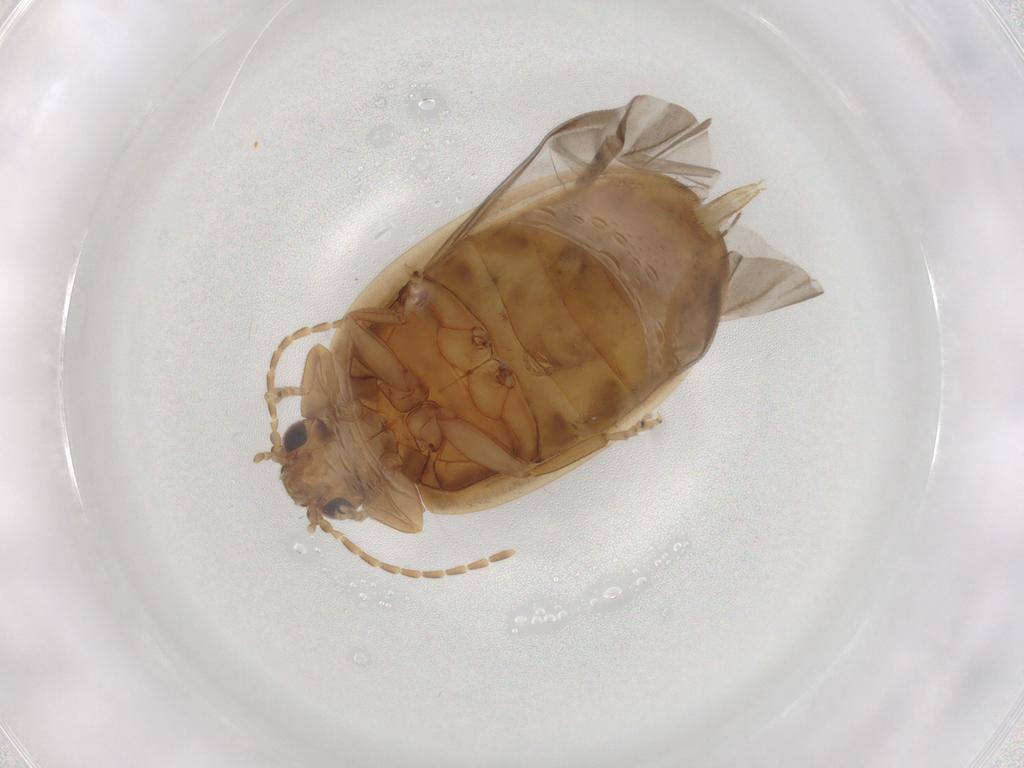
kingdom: Animalia
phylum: Arthropoda
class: Insecta
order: Coleoptera
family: Scirtidae
